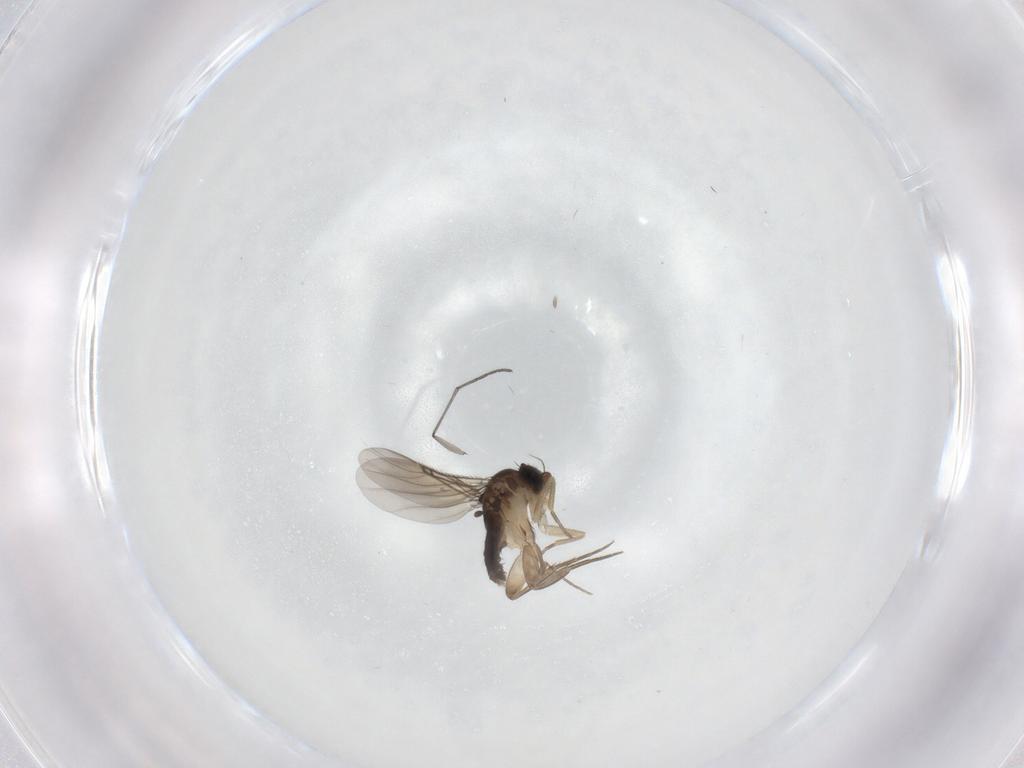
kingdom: Animalia
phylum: Arthropoda
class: Insecta
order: Diptera
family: Phoridae
